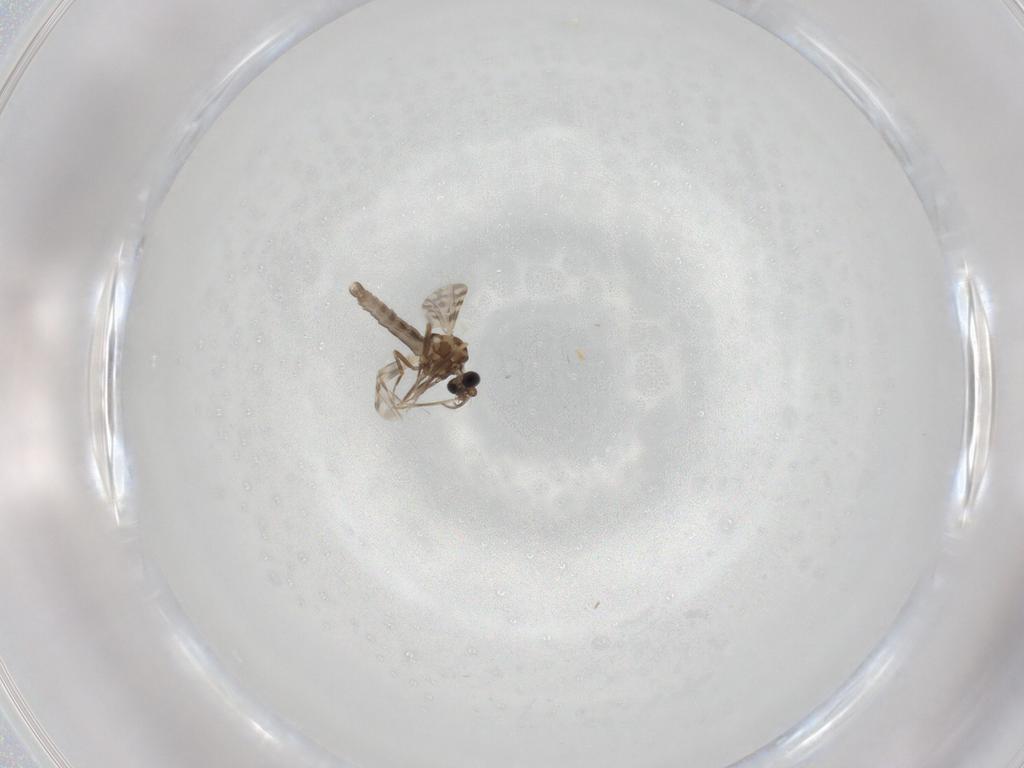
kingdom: Animalia
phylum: Arthropoda
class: Insecta
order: Diptera
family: Ceratopogonidae
